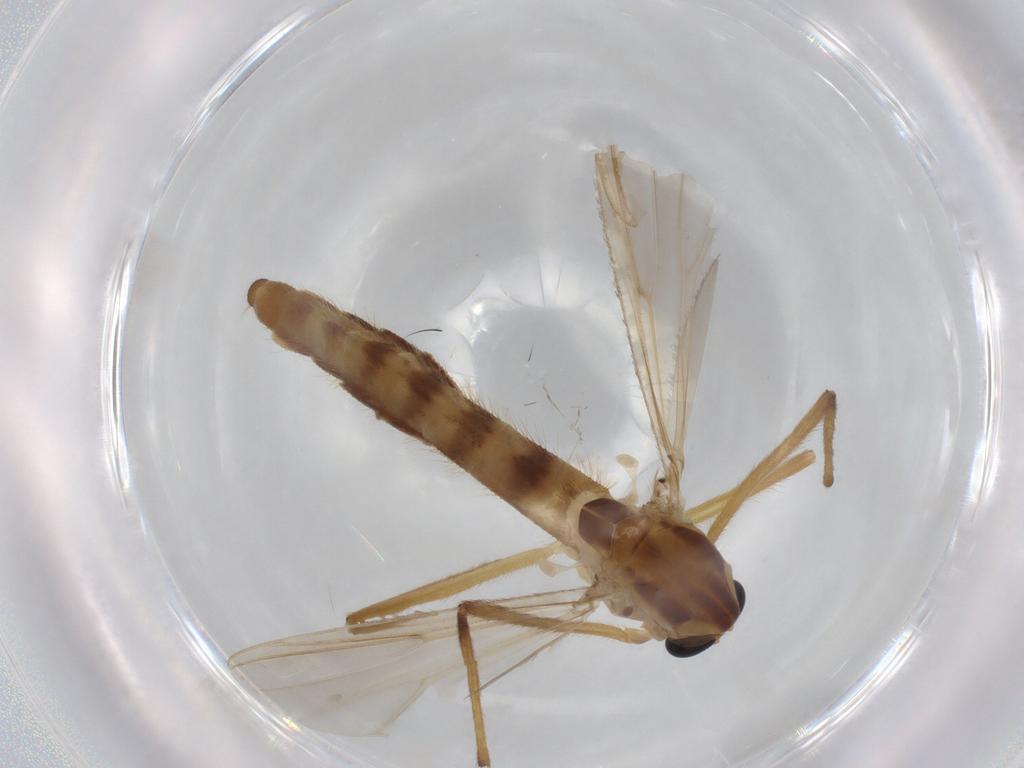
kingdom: Animalia
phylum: Arthropoda
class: Insecta
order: Diptera
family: Chironomidae
